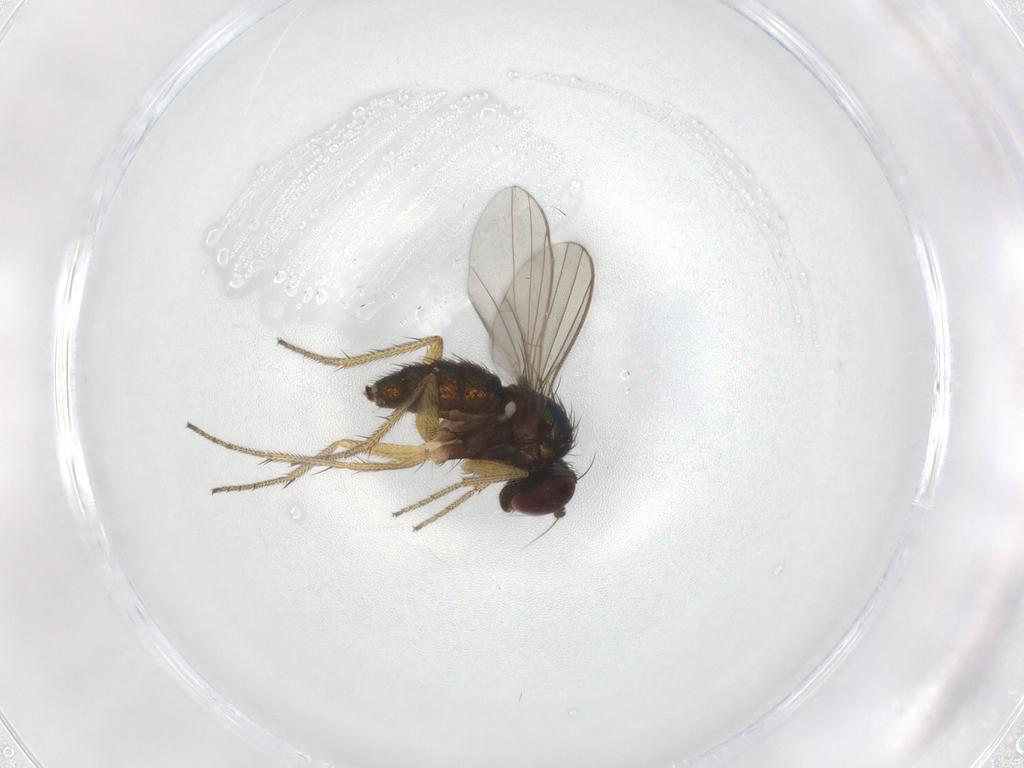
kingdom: Animalia
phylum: Arthropoda
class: Insecta
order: Diptera
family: Dolichopodidae
